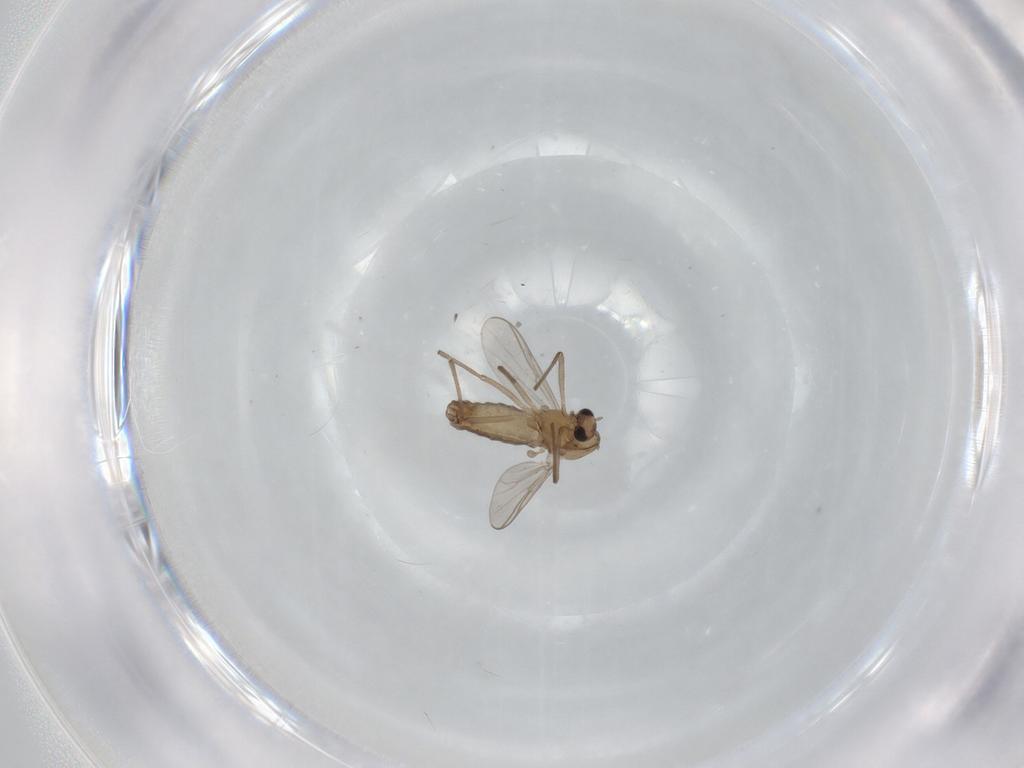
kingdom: Animalia
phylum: Arthropoda
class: Insecta
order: Diptera
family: Chironomidae
